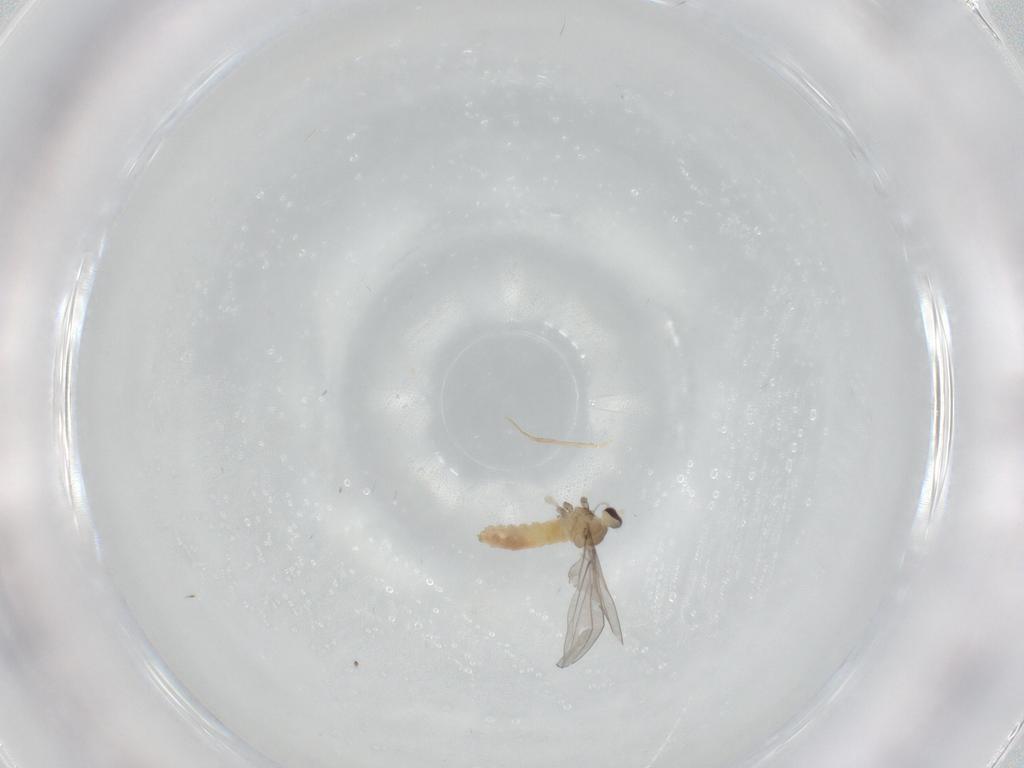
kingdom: Animalia
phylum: Arthropoda
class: Insecta
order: Diptera
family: Cecidomyiidae
